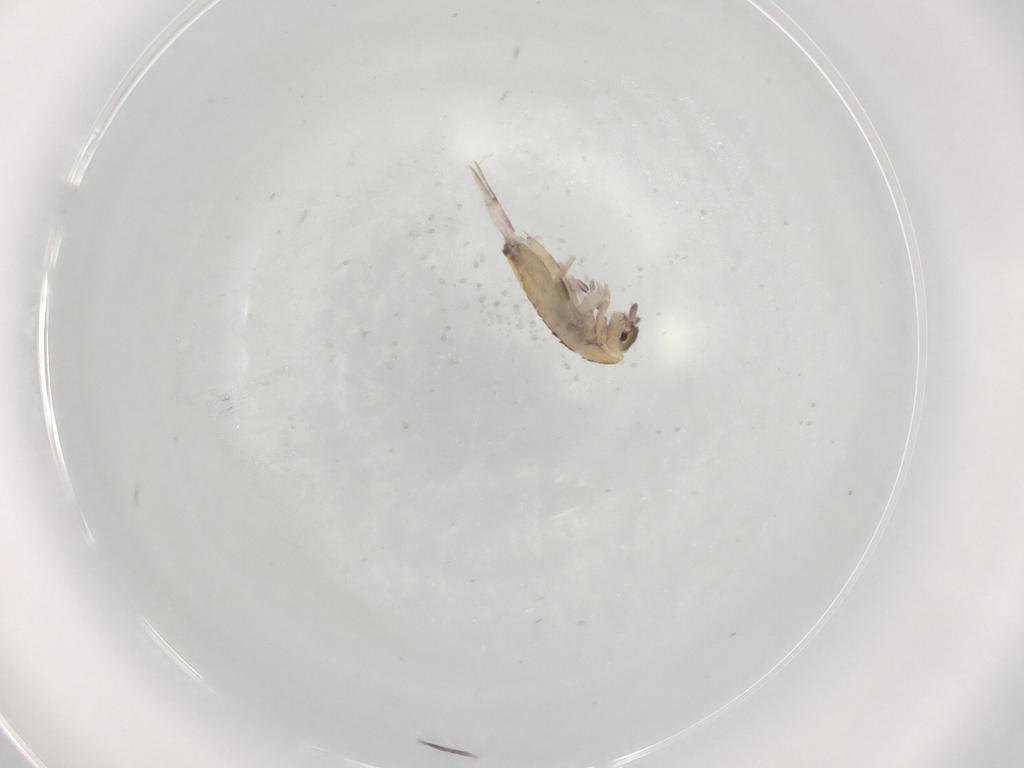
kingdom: Animalia
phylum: Arthropoda
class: Collembola
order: Entomobryomorpha
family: Entomobryidae
